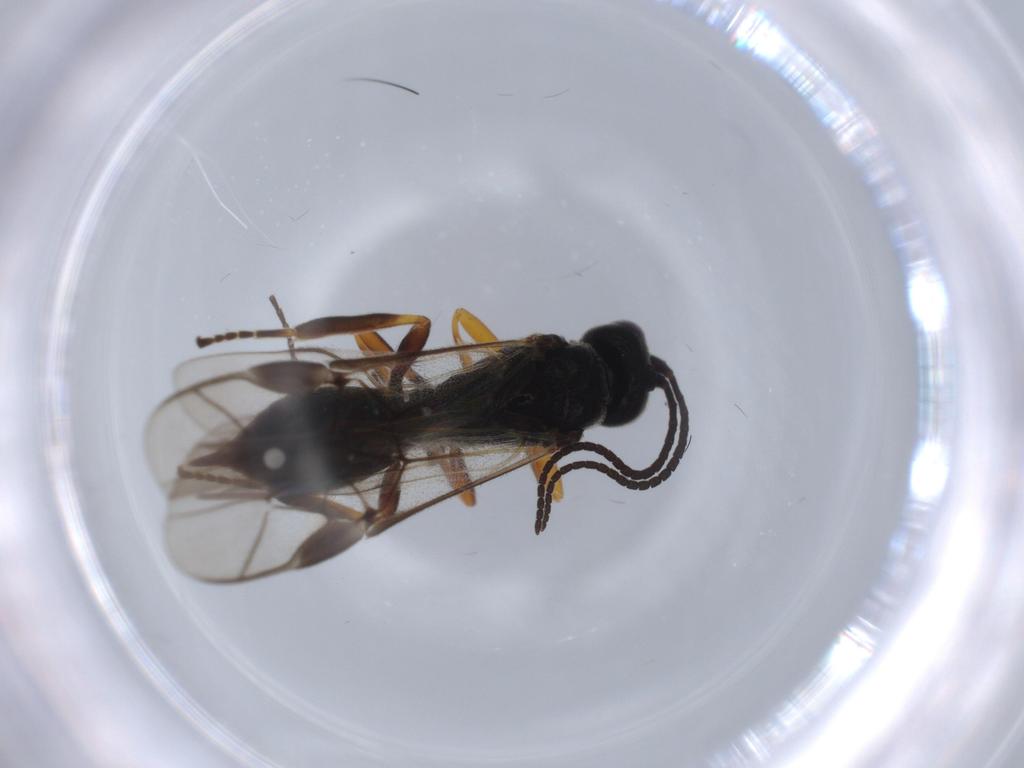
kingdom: Animalia
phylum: Arthropoda
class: Insecta
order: Hymenoptera
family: Braconidae
